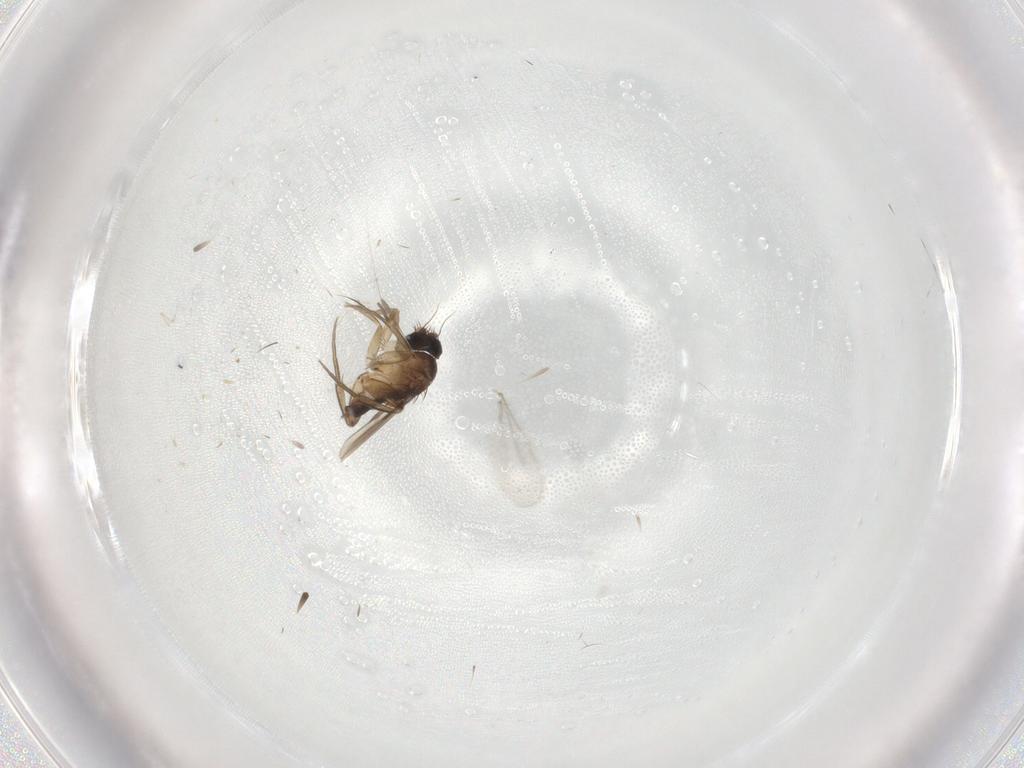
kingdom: Animalia
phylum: Arthropoda
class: Insecta
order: Diptera
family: Phoridae
